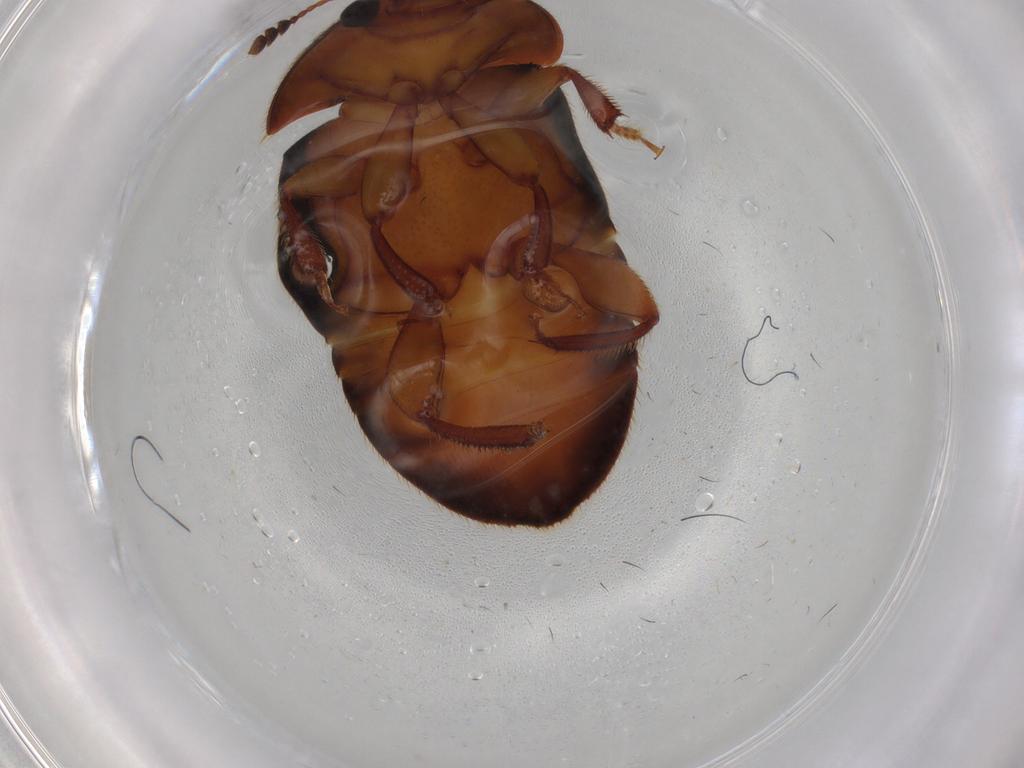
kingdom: Animalia
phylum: Arthropoda
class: Insecta
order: Coleoptera
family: Nitidulidae
